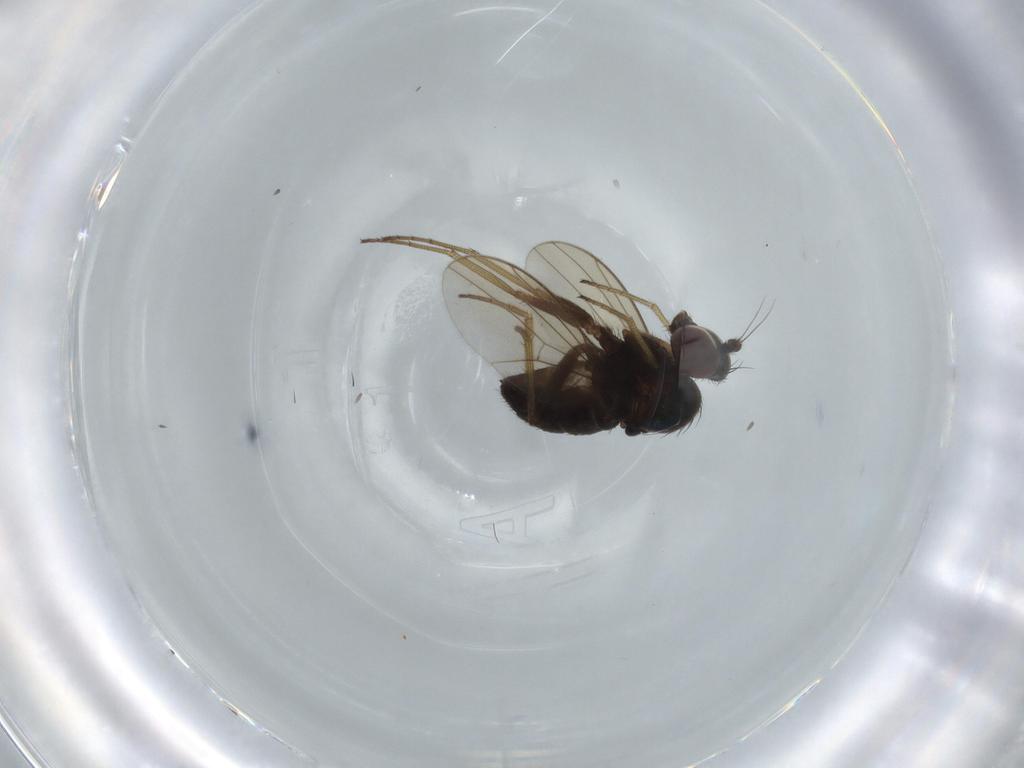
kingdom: Animalia
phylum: Arthropoda
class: Insecta
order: Diptera
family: Dolichopodidae
